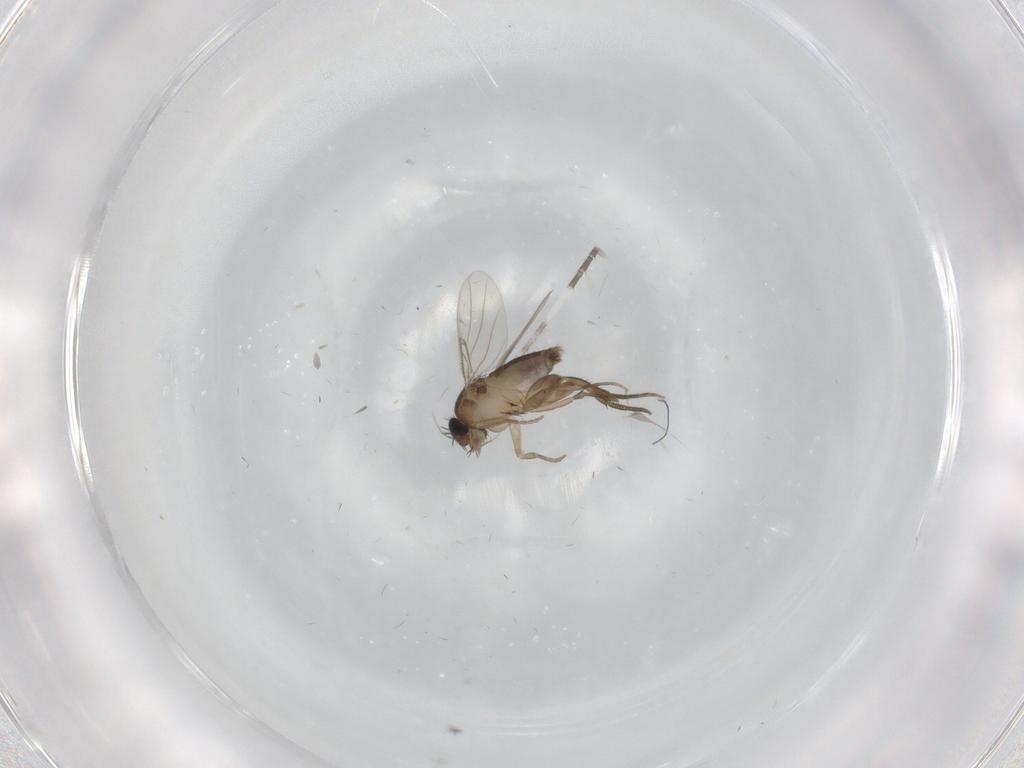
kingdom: Animalia
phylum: Arthropoda
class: Insecta
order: Diptera
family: Phoridae
